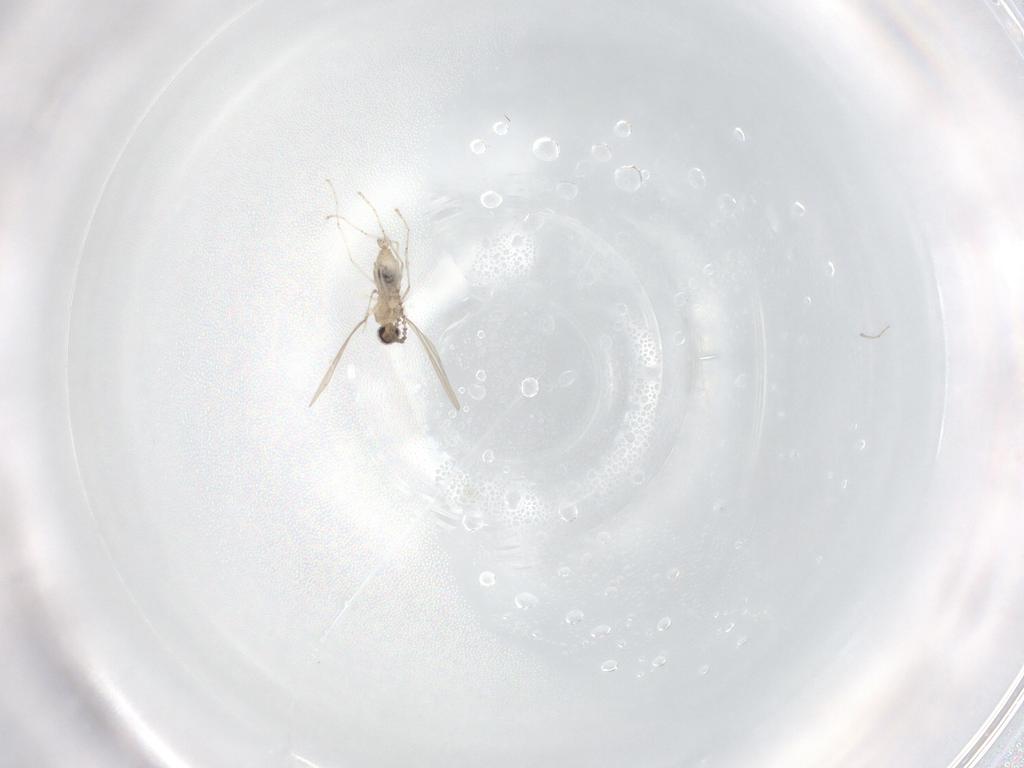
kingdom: Animalia
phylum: Arthropoda
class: Insecta
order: Diptera
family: Cecidomyiidae
